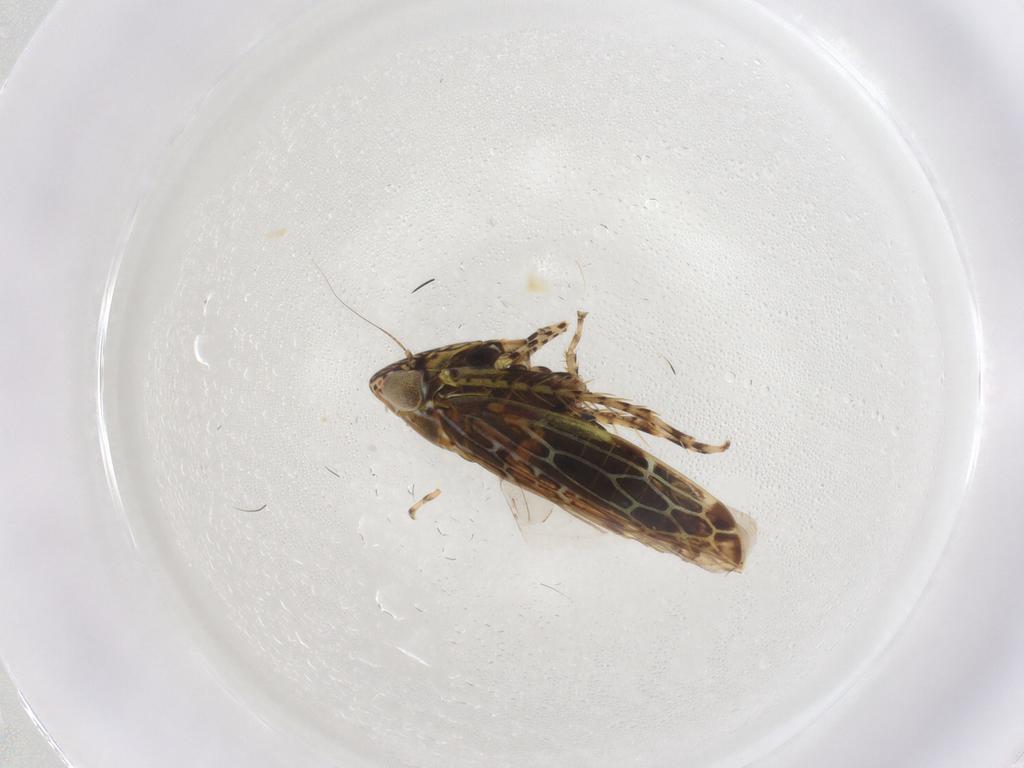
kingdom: Animalia
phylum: Arthropoda
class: Insecta
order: Hemiptera
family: Cicadellidae
